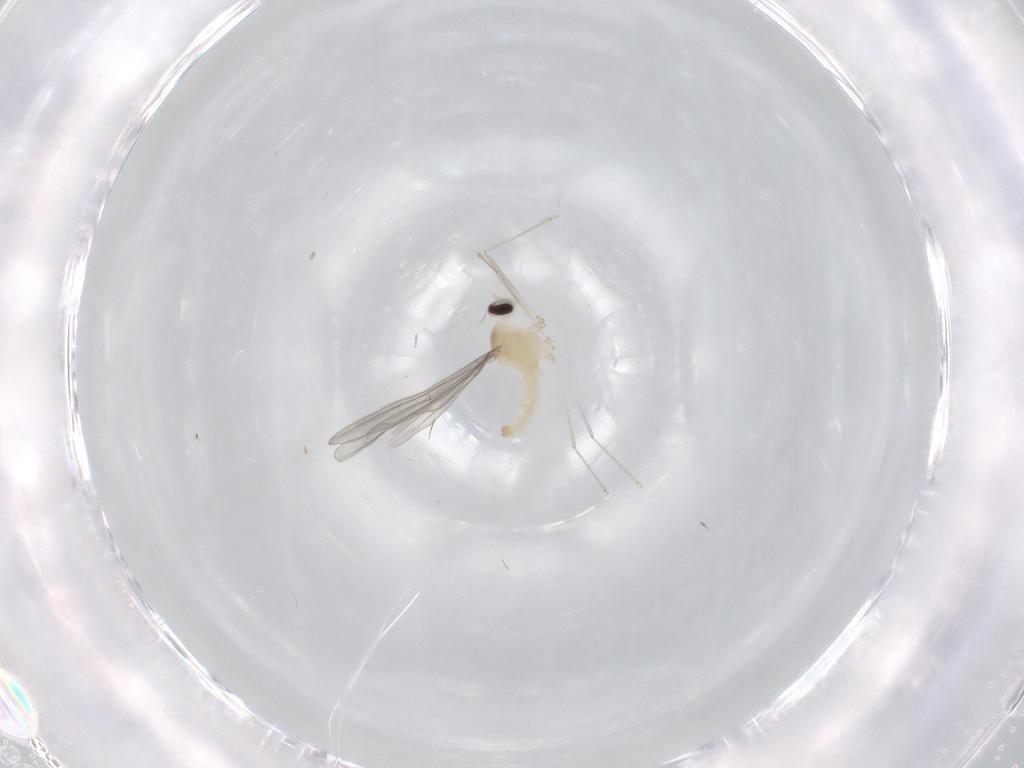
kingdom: Animalia
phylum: Arthropoda
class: Insecta
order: Diptera
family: Cecidomyiidae
